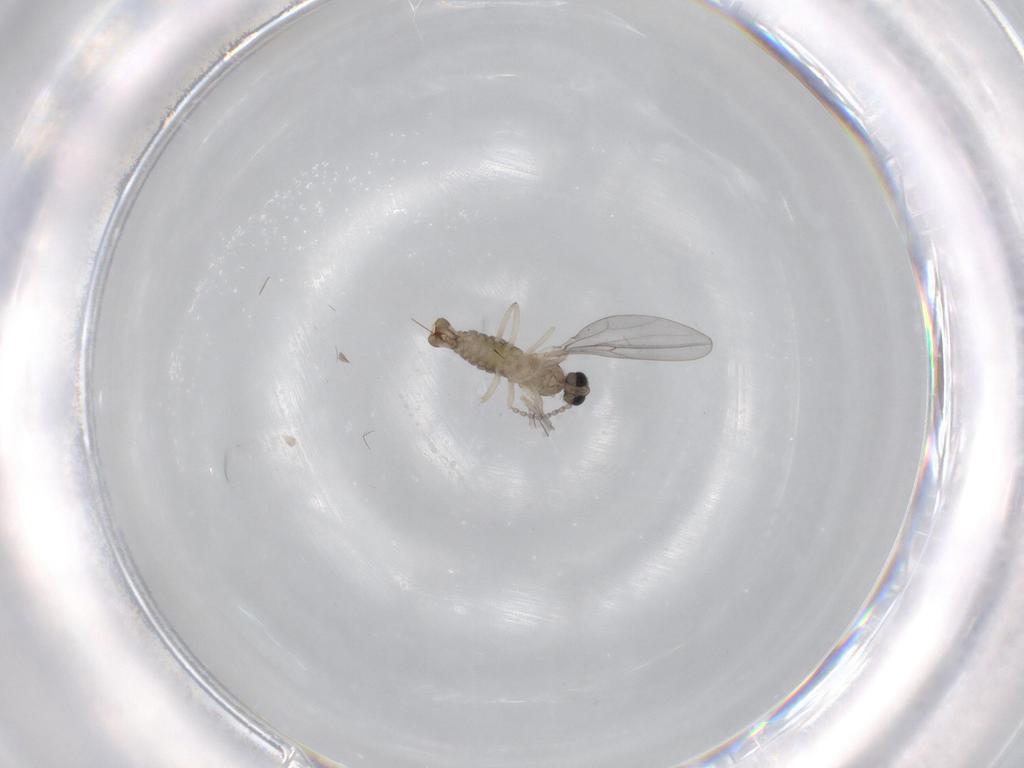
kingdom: Animalia
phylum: Arthropoda
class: Insecta
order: Diptera
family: Cecidomyiidae
